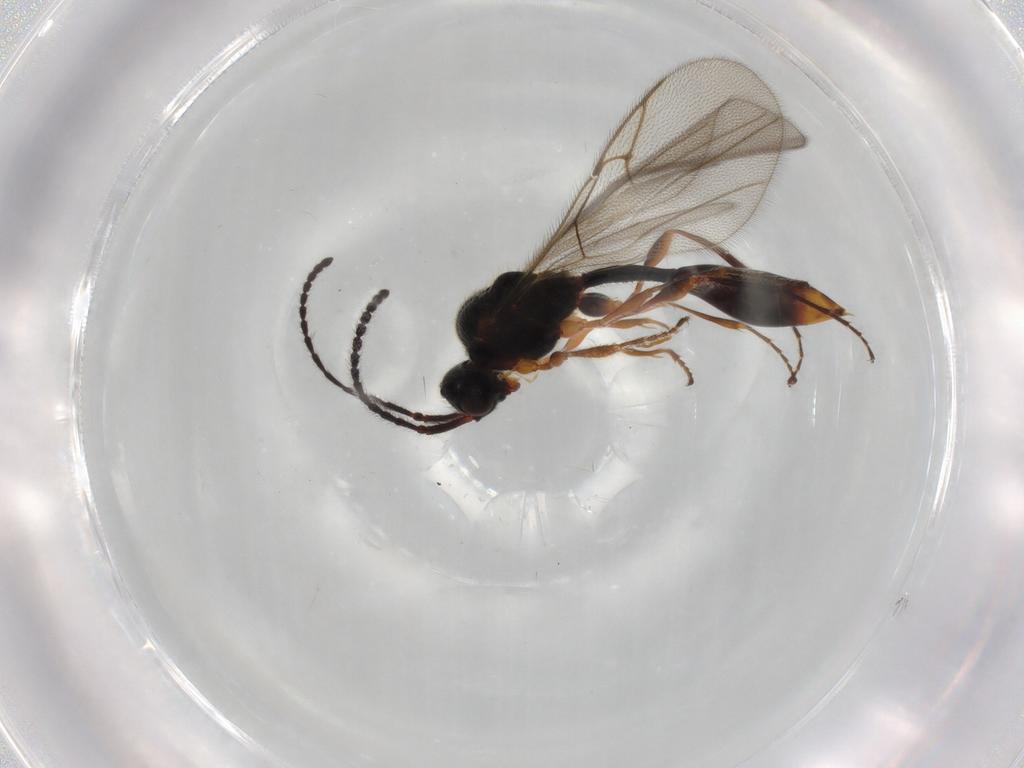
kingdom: Animalia
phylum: Arthropoda
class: Insecta
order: Hymenoptera
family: Diapriidae
